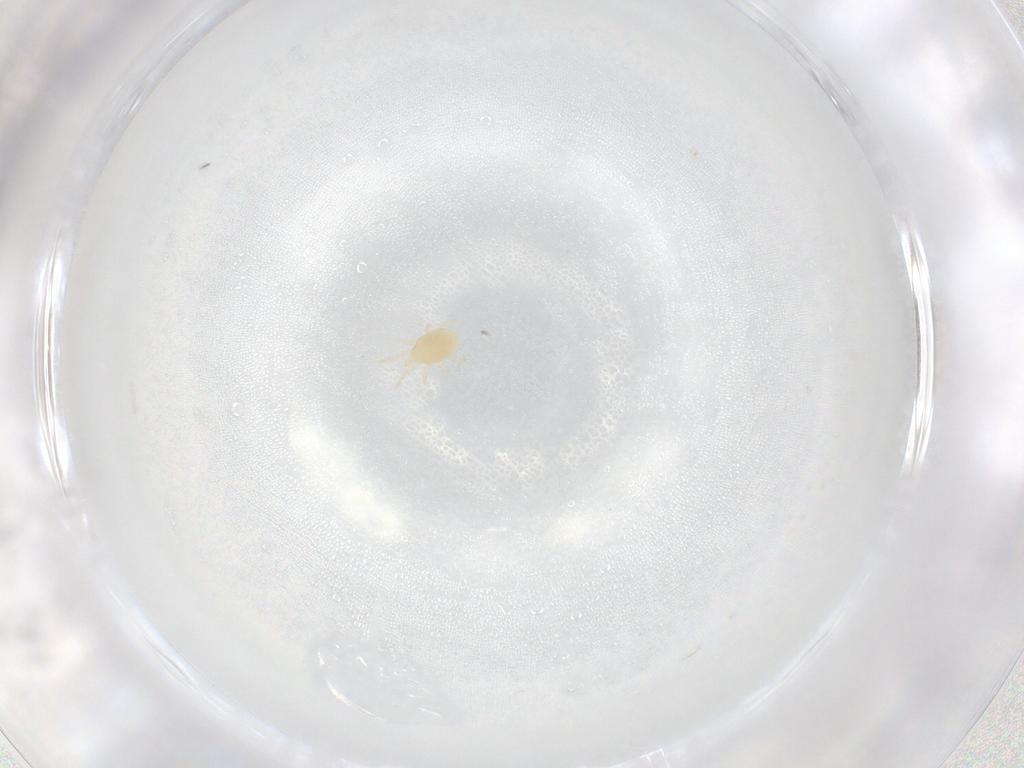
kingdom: Animalia
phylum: Arthropoda
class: Arachnida
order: Mesostigmata
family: Melicharidae
